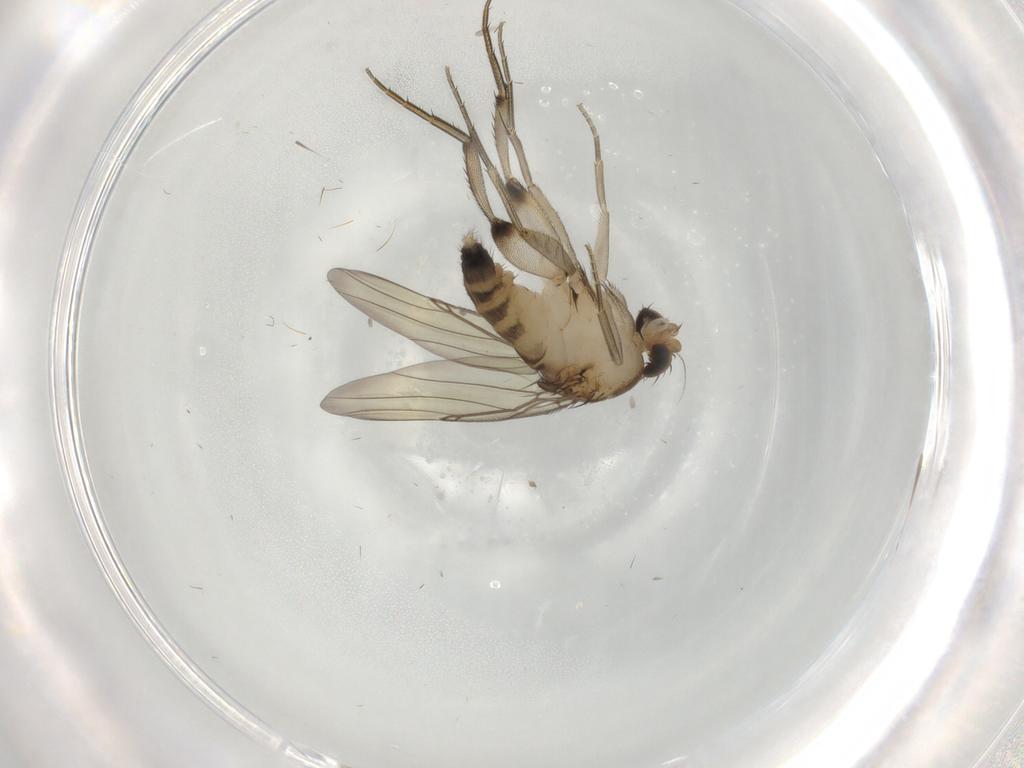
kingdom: Animalia
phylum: Arthropoda
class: Insecta
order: Diptera
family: Phoridae
